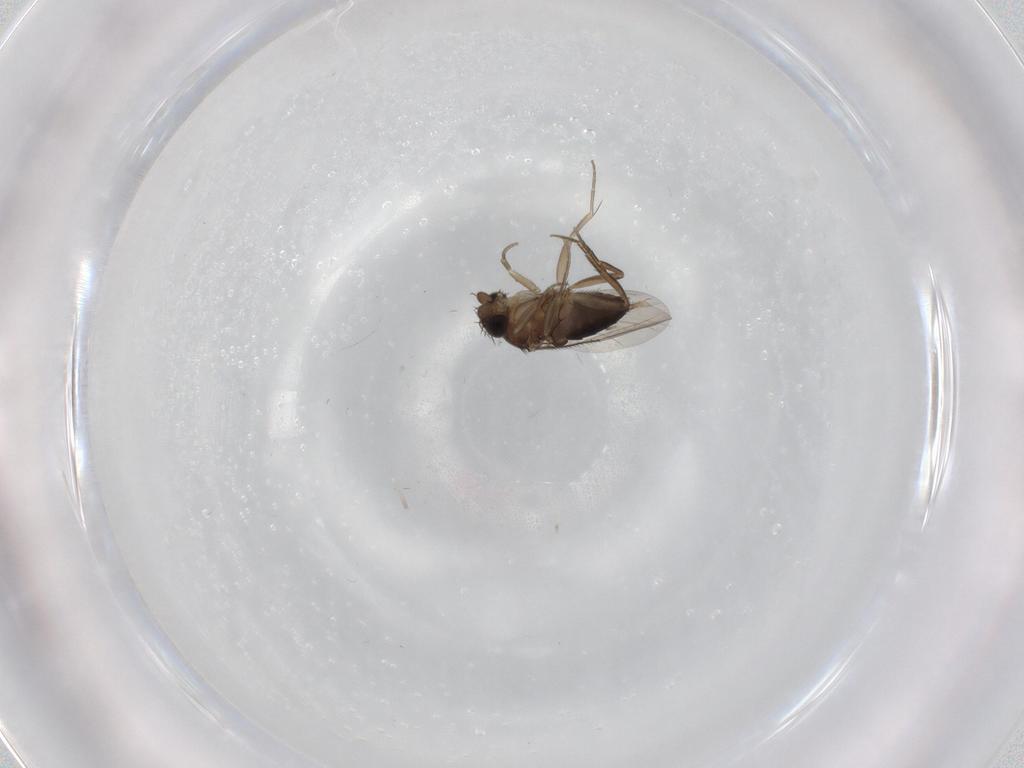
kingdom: Animalia
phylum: Arthropoda
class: Insecta
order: Diptera
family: Phoridae
